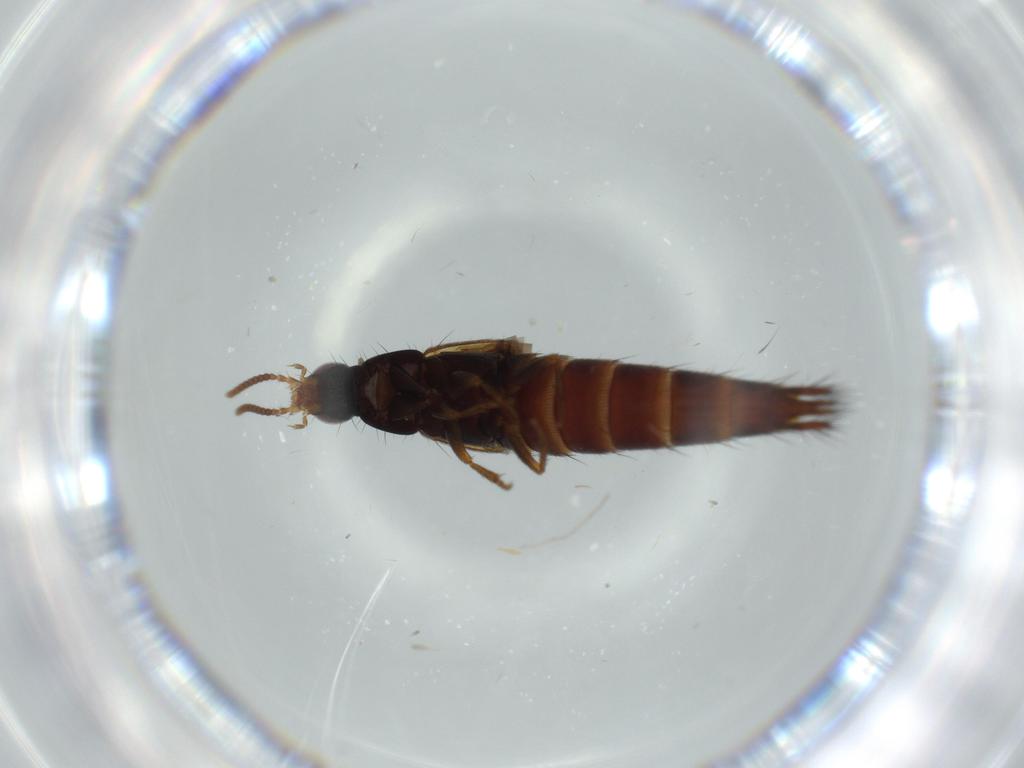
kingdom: Animalia
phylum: Arthropoda
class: Insecta
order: Coleoptera
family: Staphylinidae
